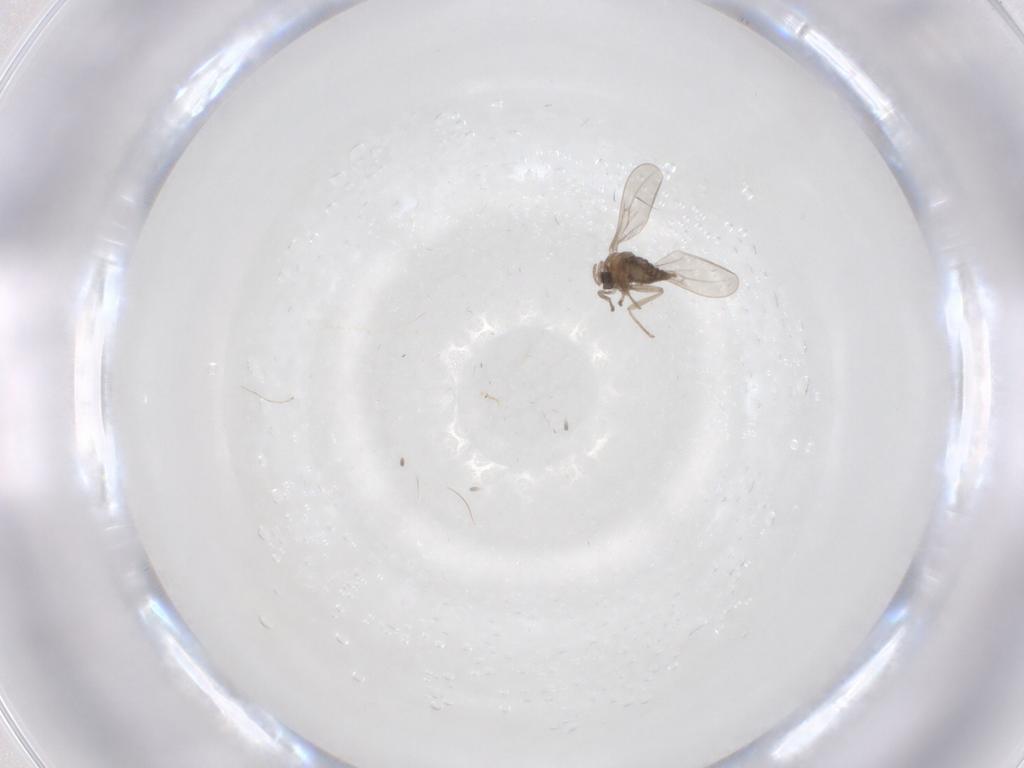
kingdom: Animalia
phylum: Arthropoda
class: Insecta
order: Diptera
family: Cecidomyiidae
